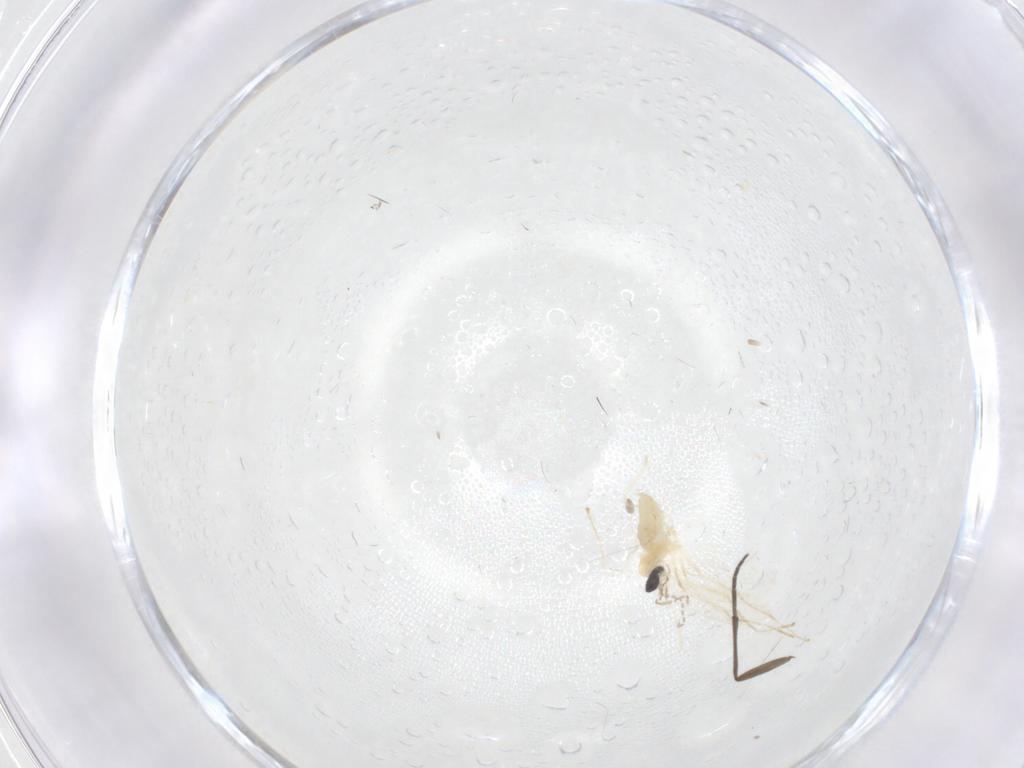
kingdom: Animalia
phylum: Arthropoda
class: Insecta
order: Diptera
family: Cecidomyiidae
